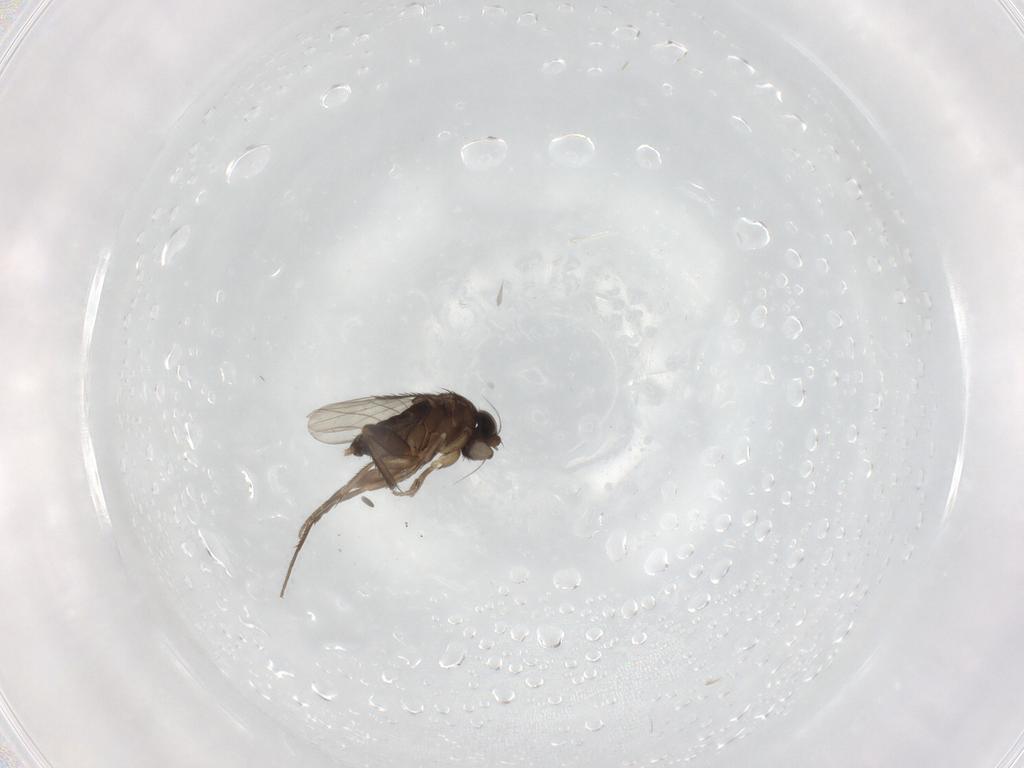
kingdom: Animalia
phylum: Arthropoda
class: Insecta
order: Diptera
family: Phoridae
